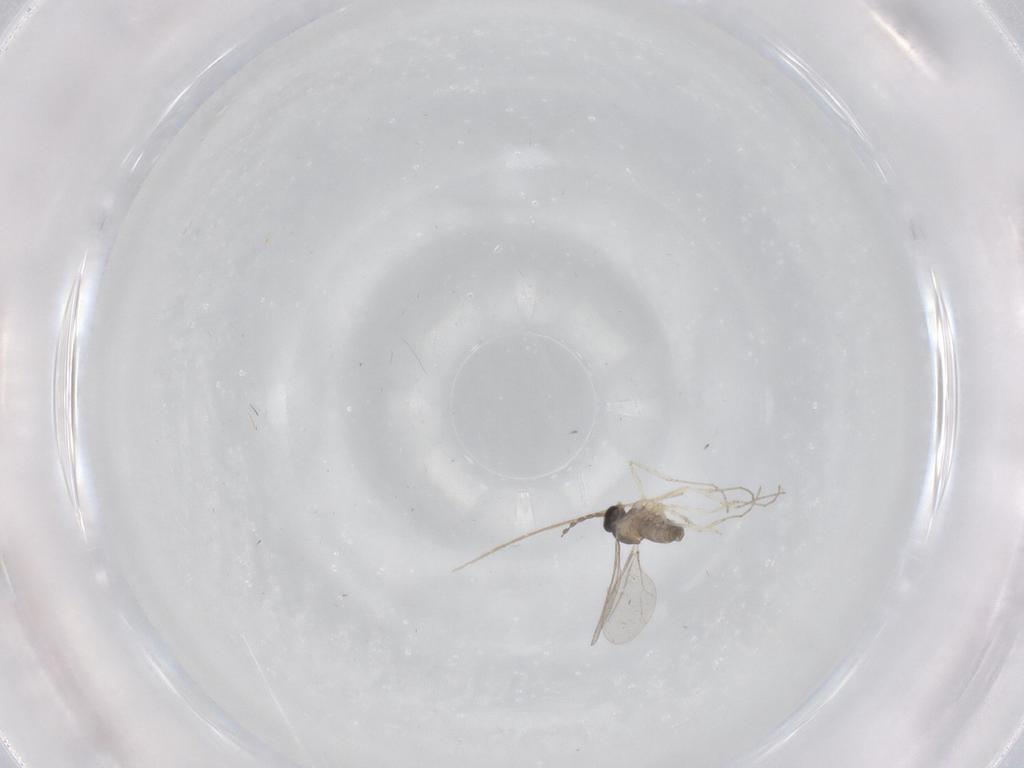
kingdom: Animalia
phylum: Arthropoda
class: Insecta
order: Diptera
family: Chironomidae
